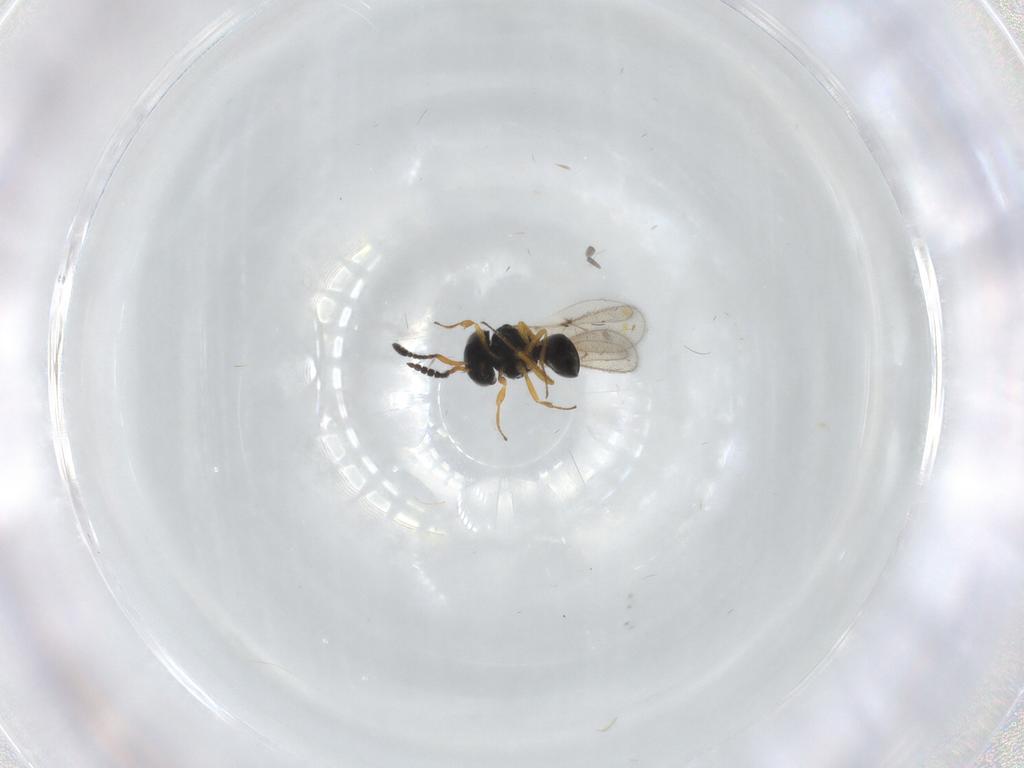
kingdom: Animalia
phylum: Arthropoda
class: Insecta
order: Hymenoptera
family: Scelionidae
